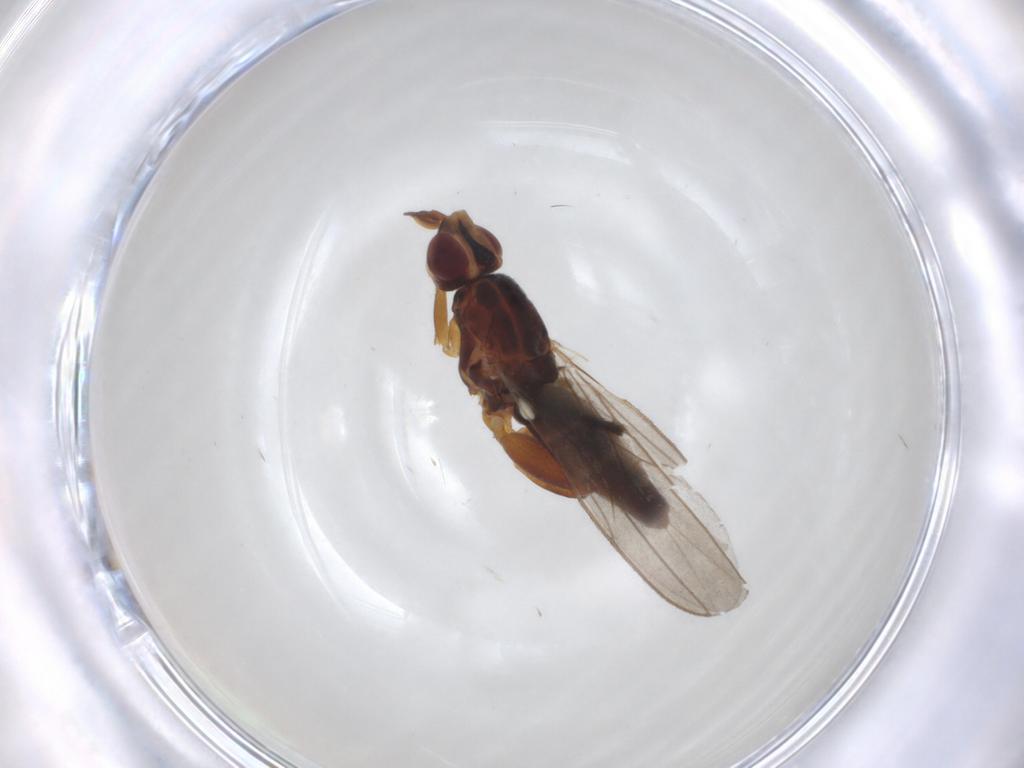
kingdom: Animalia
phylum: Arthropoda
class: Insecta
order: Diptera
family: Chloropidae
